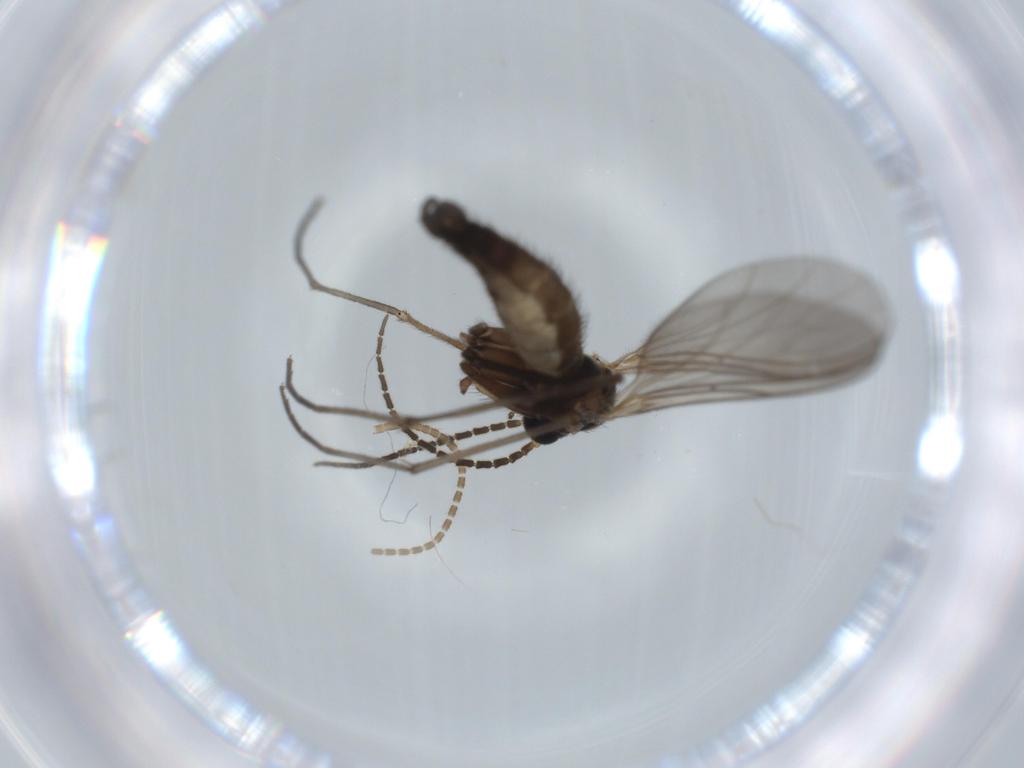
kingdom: Animalia
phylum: Arthropoda
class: Insecta
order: Diptera
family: Sciaridae
